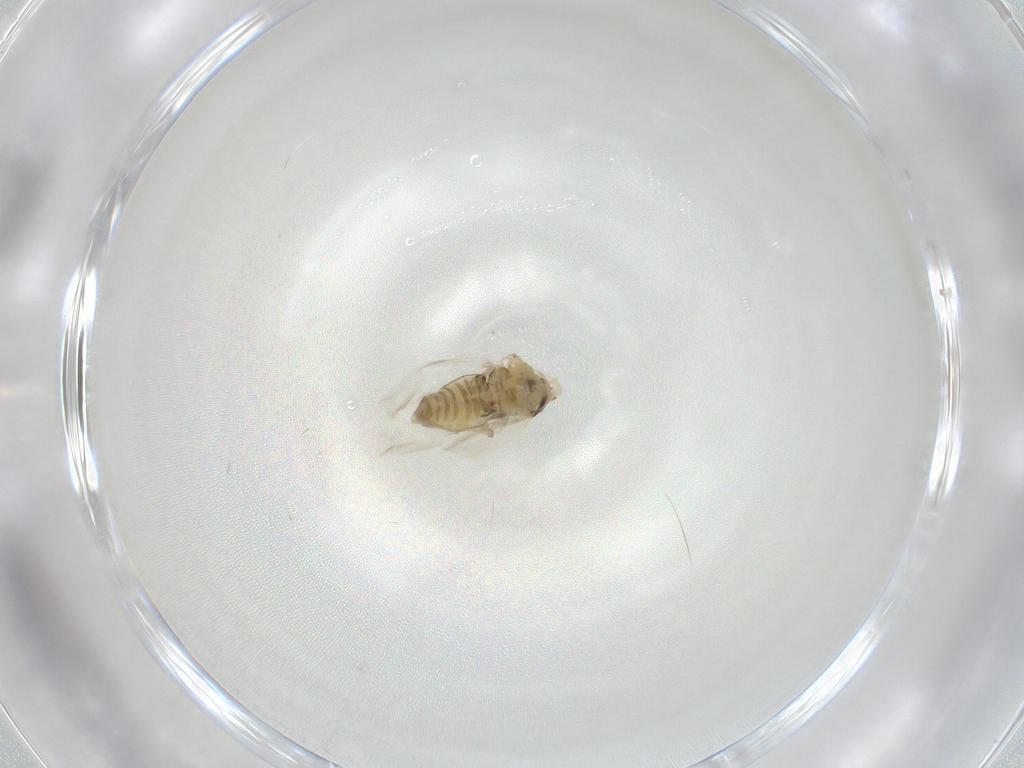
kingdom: Animalia
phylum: Arthropoda
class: Insecta
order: Hemiptera
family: Aleyrodidae
